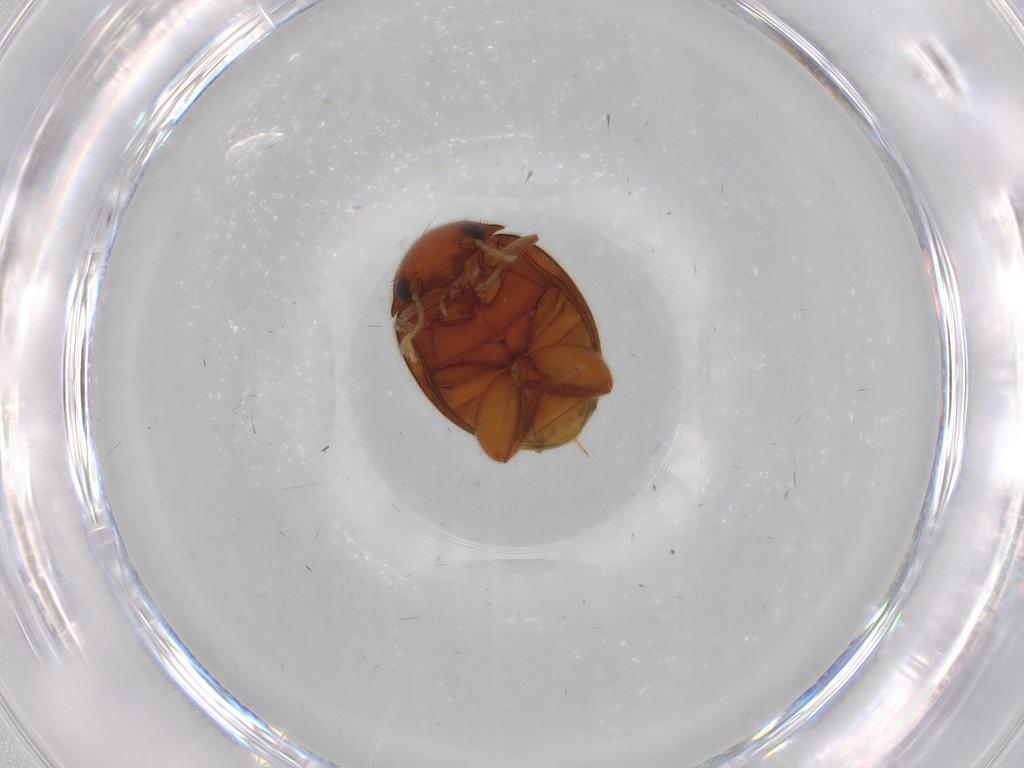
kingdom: Animalia
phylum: Arthropoda
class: Insecta
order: Coleoptera
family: Scirtidae
